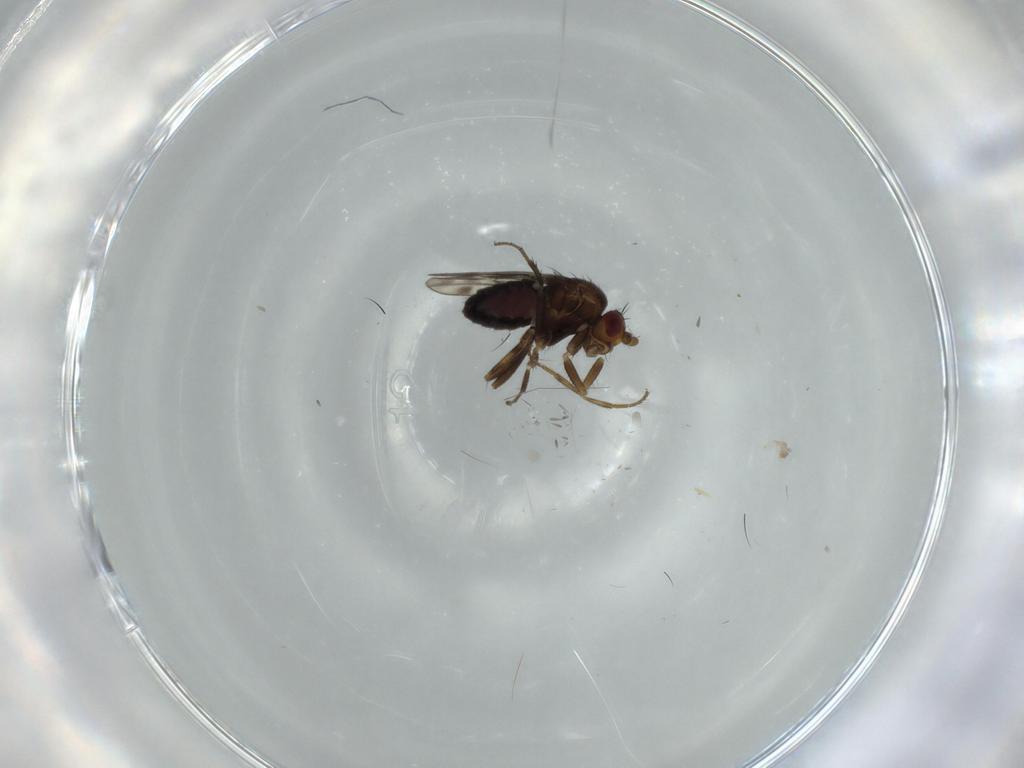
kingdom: Animalia
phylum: Arthropoda
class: Insecta
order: Diptera
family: Sphaeroceridae
